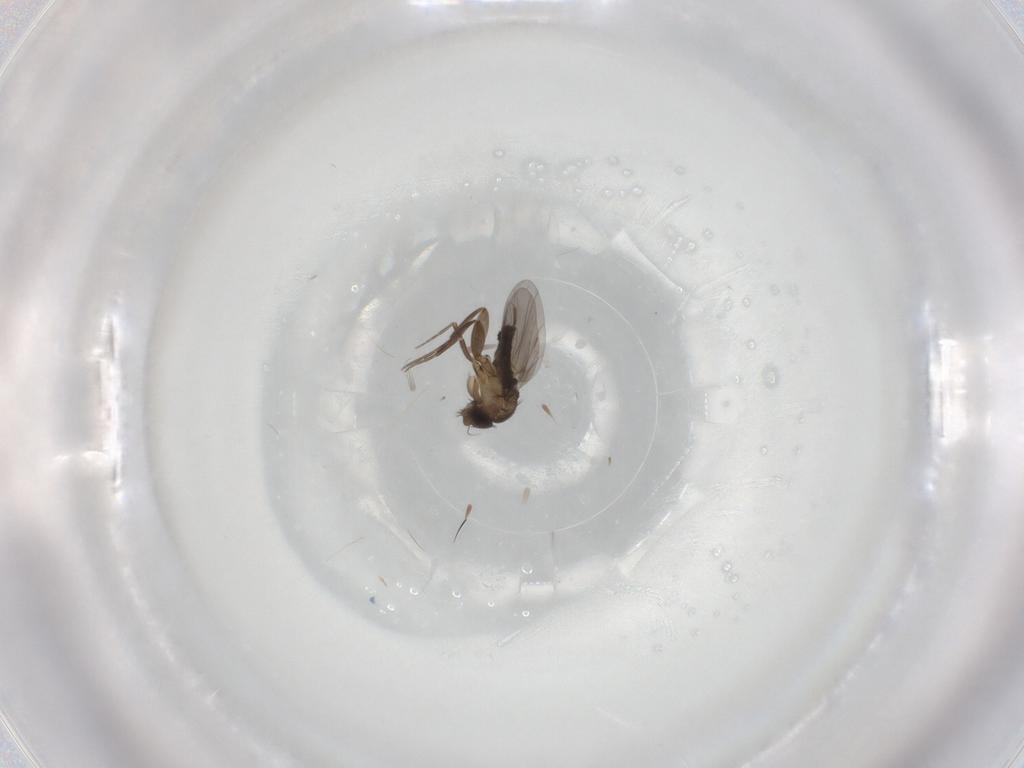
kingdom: Animalia
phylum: Arthropoda
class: Insecta
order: Diptera
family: Phoridae
